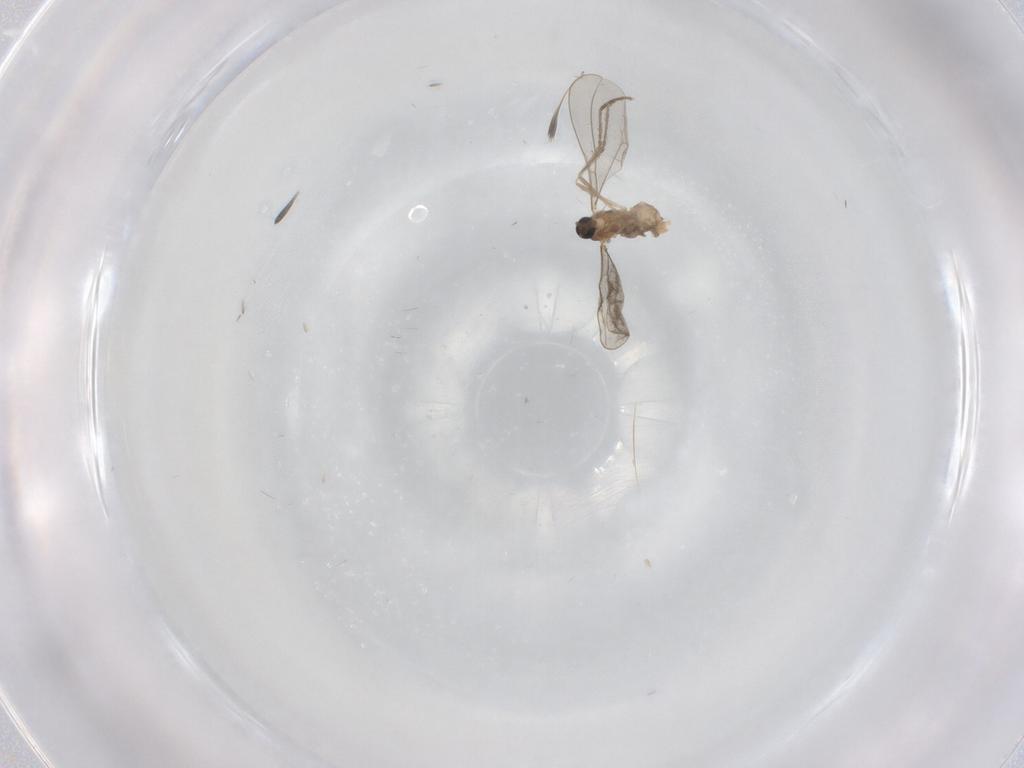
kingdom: Animalia
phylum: Arthropoda
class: Insecta
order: Diptera
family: Cecidomyiidae
